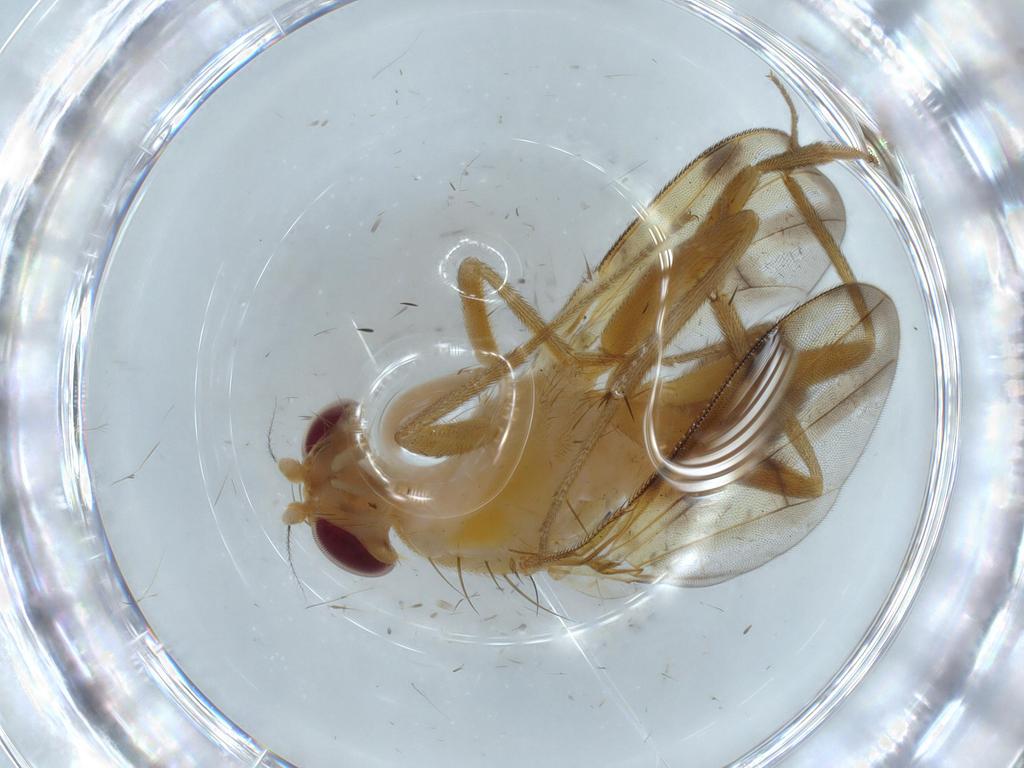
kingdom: Animalia
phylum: Arthropoda
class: Insecta
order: Diptera
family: Phoridae
